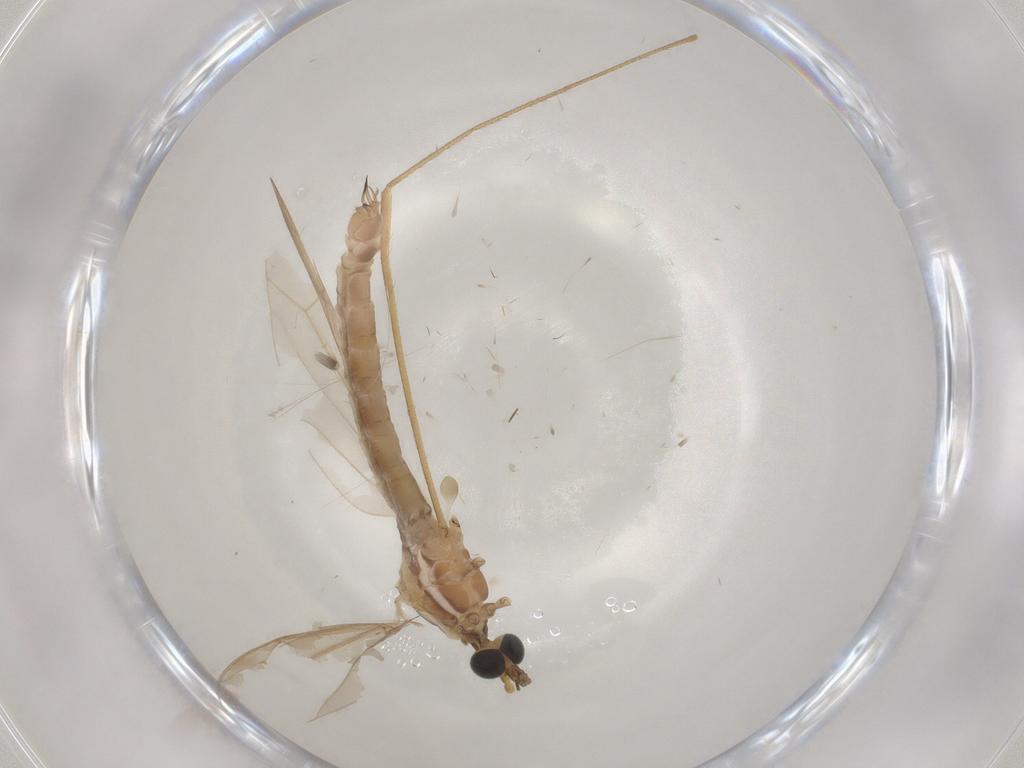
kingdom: Animalia
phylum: Arthropoda
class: Insecta
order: Diptera
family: Limoniidae
